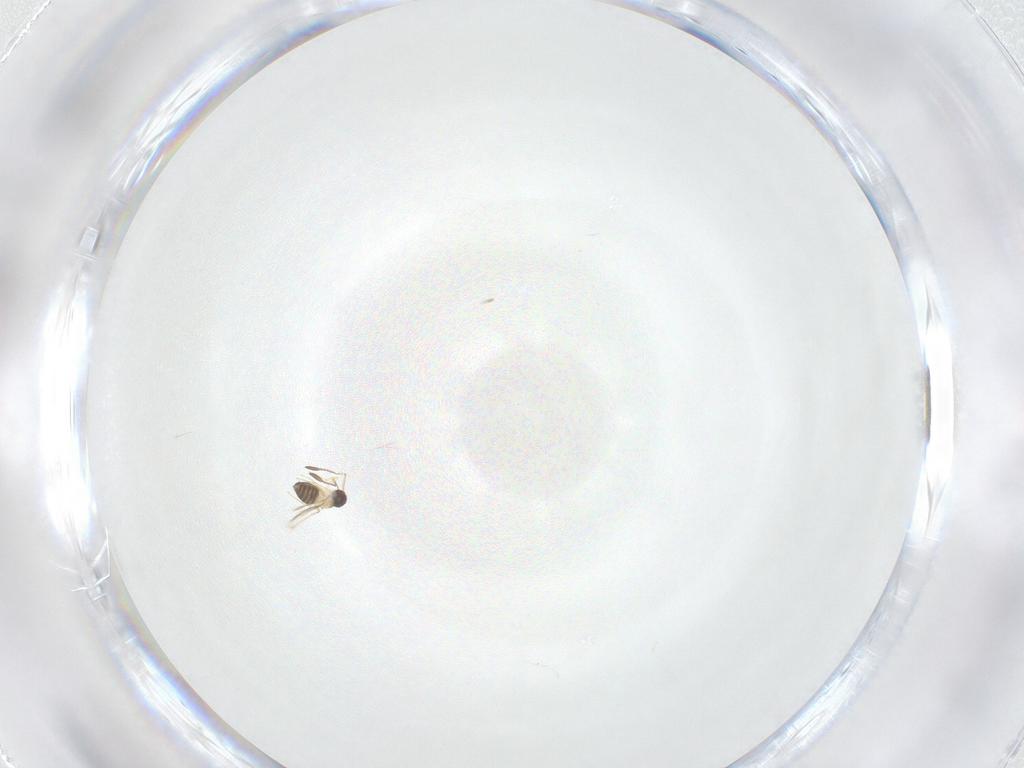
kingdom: Animalia
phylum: Arthropoda
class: Insecta
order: Hymenoptera
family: Mymaridae
